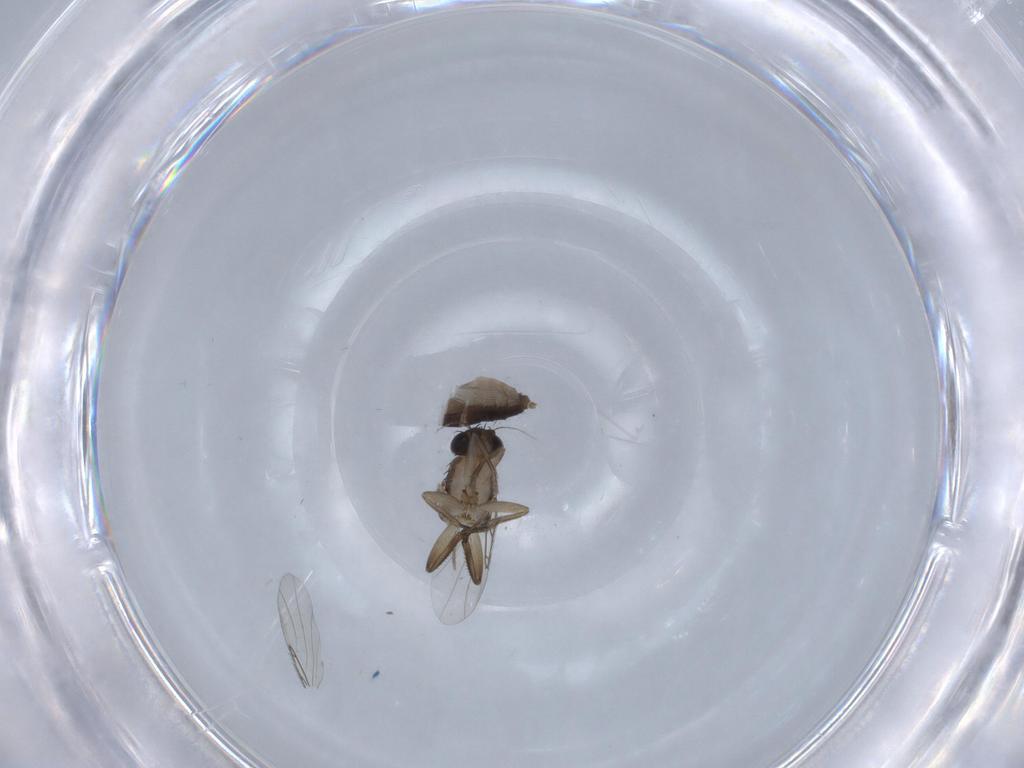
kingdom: Animalia
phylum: Arthropoda
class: Insecta
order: Diptera
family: Phoridae
